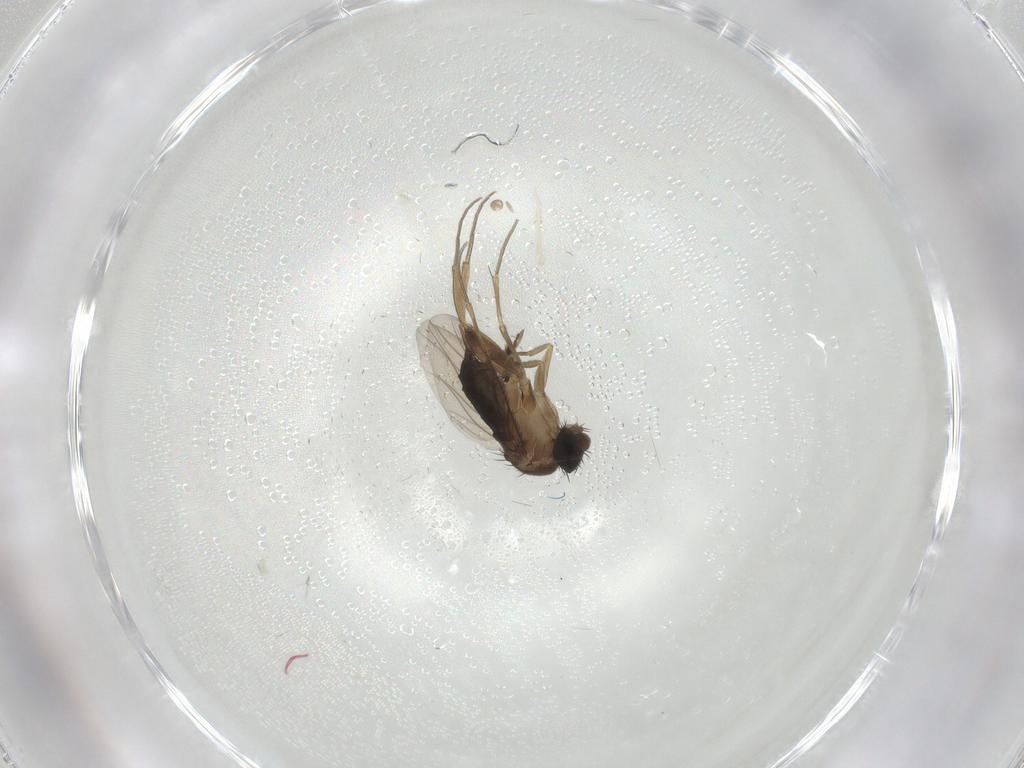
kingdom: Animalia
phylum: Arthropoda
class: Insecta
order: Diptera
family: Phoridae
